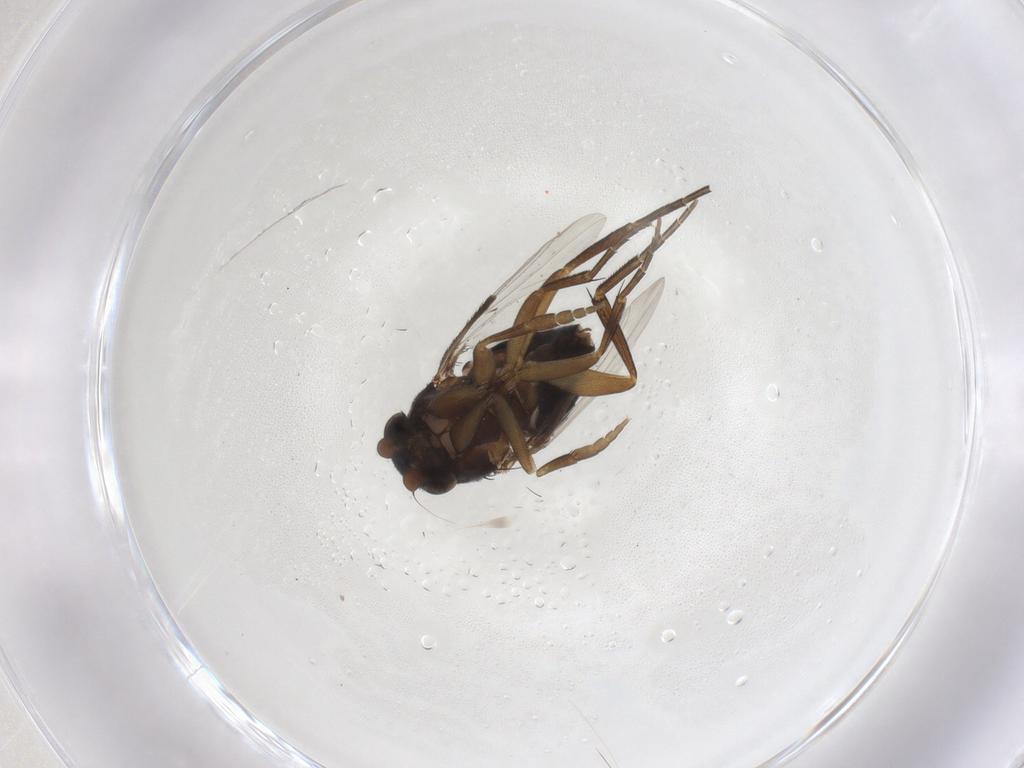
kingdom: Animalia
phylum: Arthropoda
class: Insecta
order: Diptera
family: Phoridae
